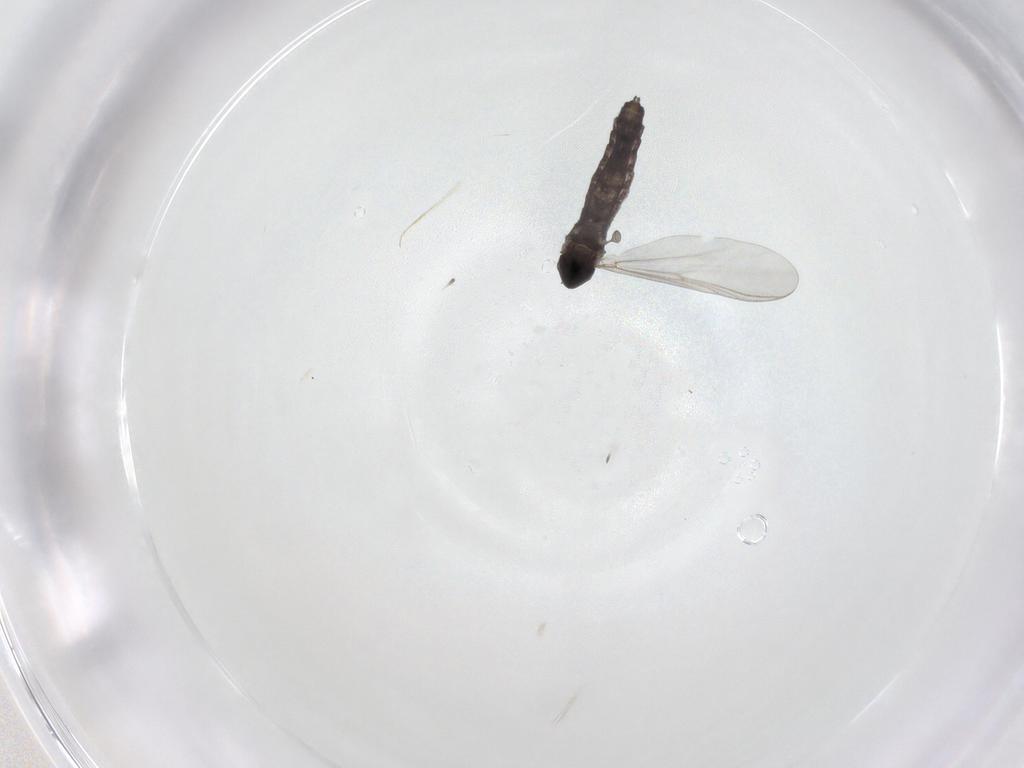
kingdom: Animalia
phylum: Arthropoda
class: Insecta
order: Diptera
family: Chironomidae
